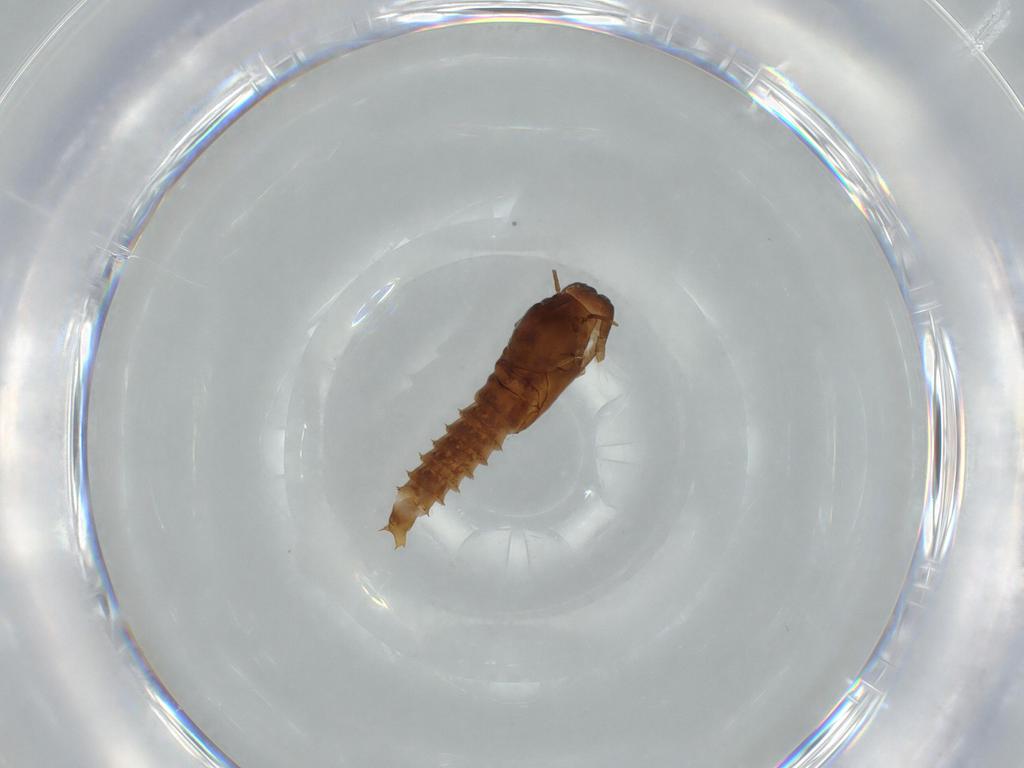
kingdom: Animalia
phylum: Arthropoda
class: Insecta
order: Diptera
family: Ceratopogonidae
